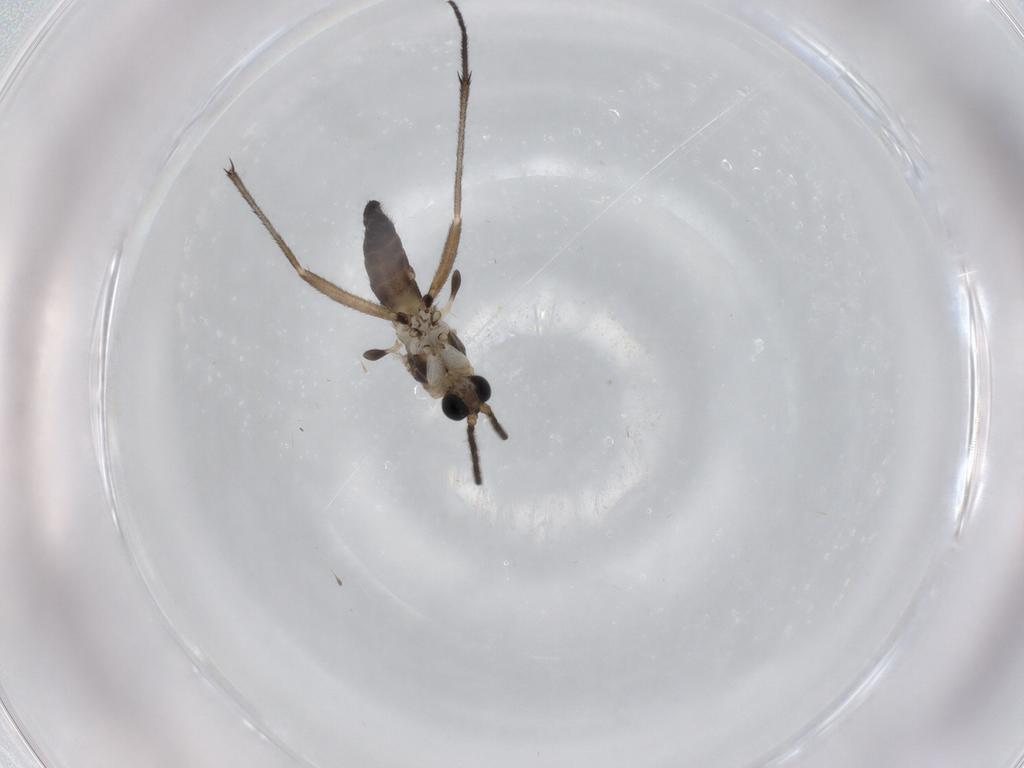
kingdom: Animalia
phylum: Arthropoda
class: Insecta
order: Diptera
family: Sciaridae
